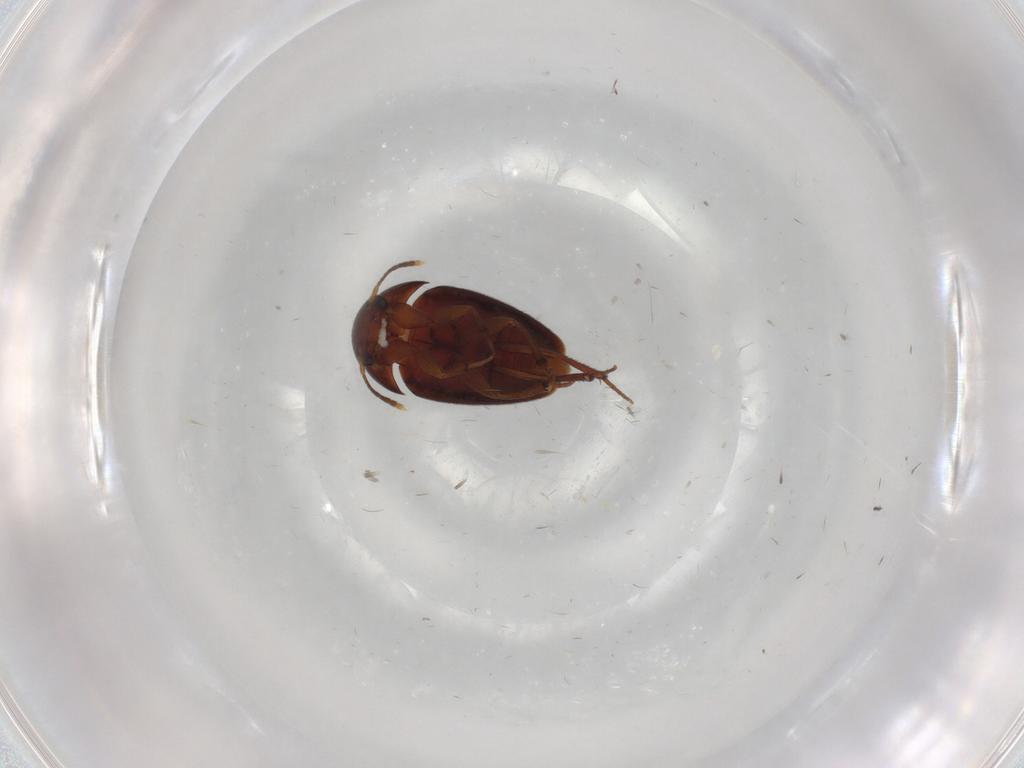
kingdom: Animalia
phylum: Arthropoda
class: Insecta
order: Coleoptera
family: Leiodidae
